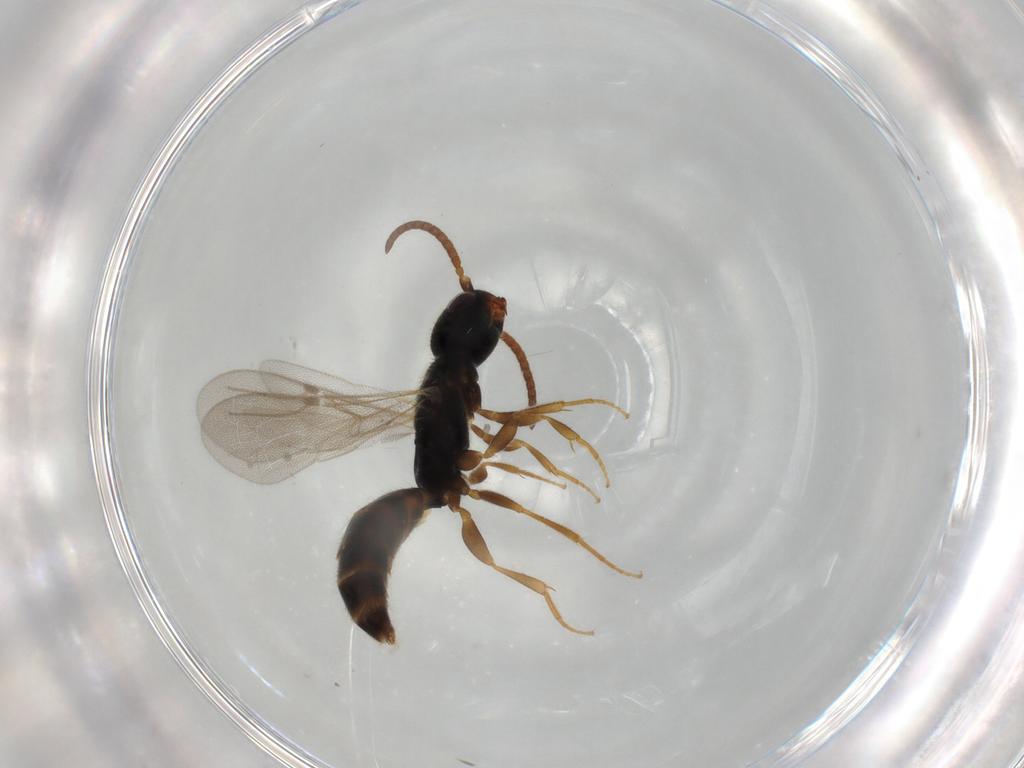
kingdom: Animalia
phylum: Arthropoda
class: Insecta
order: Hymenoptera
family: Bethylidae
